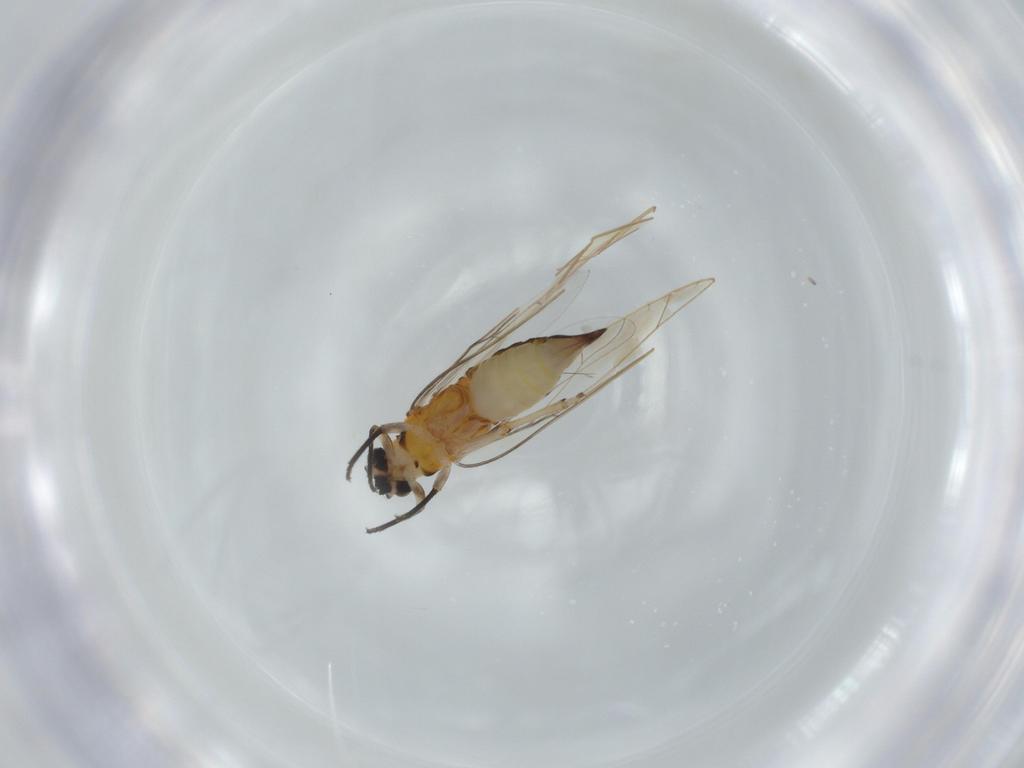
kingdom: Animalia
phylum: Arthropoda
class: Insecta
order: Hemiptera
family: Triozidae
